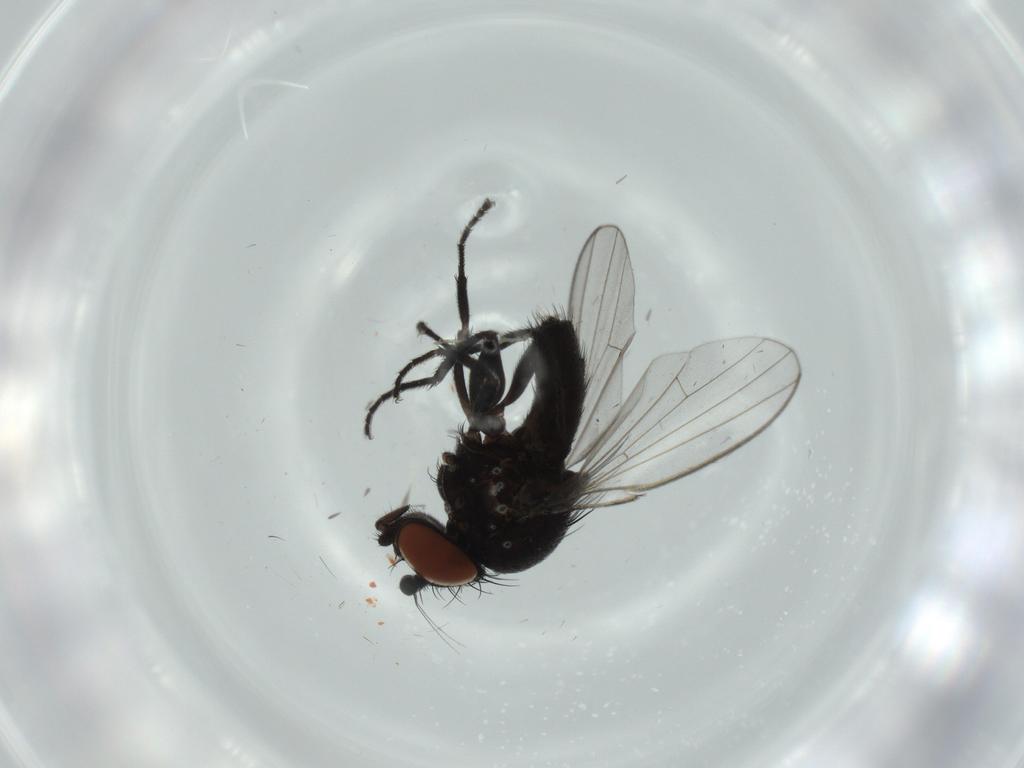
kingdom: Animalia
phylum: Arthropoda
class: Insecta
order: Diptera
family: Milichiidae
